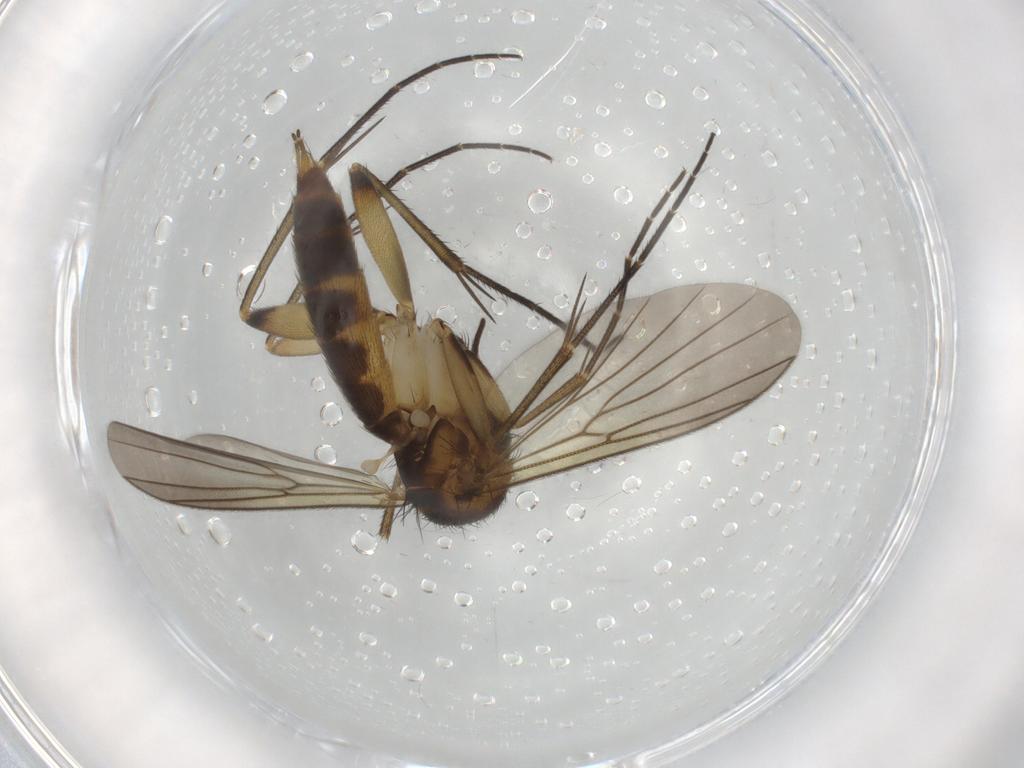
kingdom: Animalia
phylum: Arthropoda
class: Insecta
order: Diptera
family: Mycetophilidae
